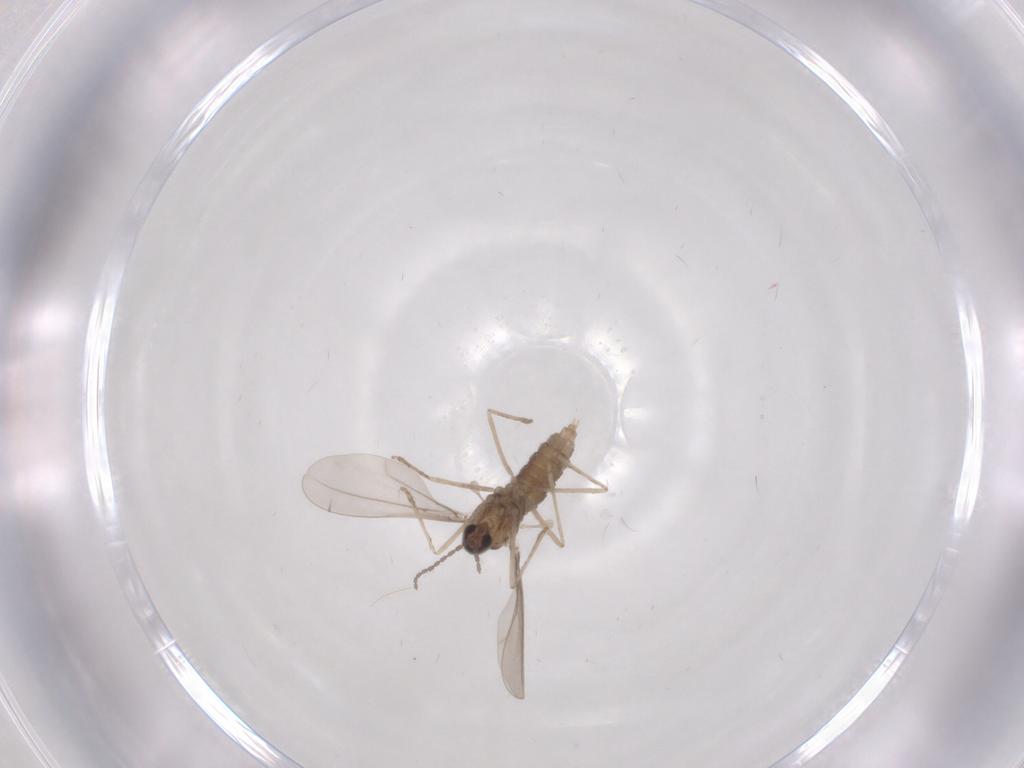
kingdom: Animalia
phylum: Arthropoda
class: Insecta
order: Diptera
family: Cecidomyiidae
